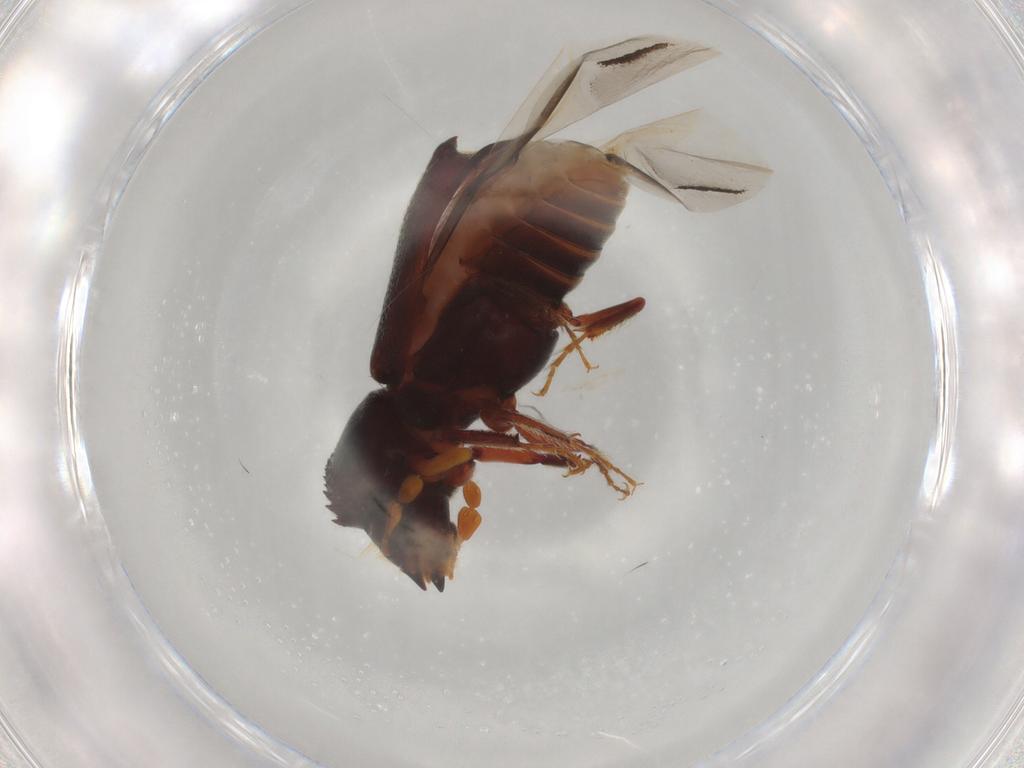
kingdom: Animalia
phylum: Arthropoda
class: Insecta
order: Coleoptera
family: Bostrichidae
